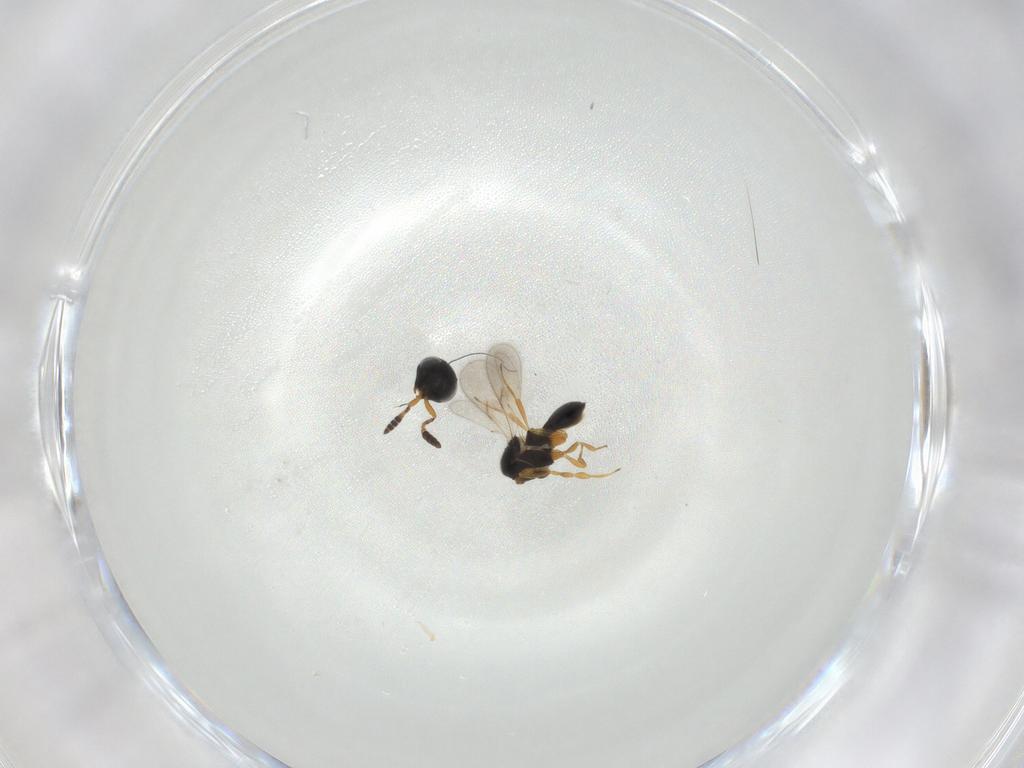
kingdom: Animalia
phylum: Arthropoda
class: Insecta
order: Hymenoptera
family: Scelionidae
